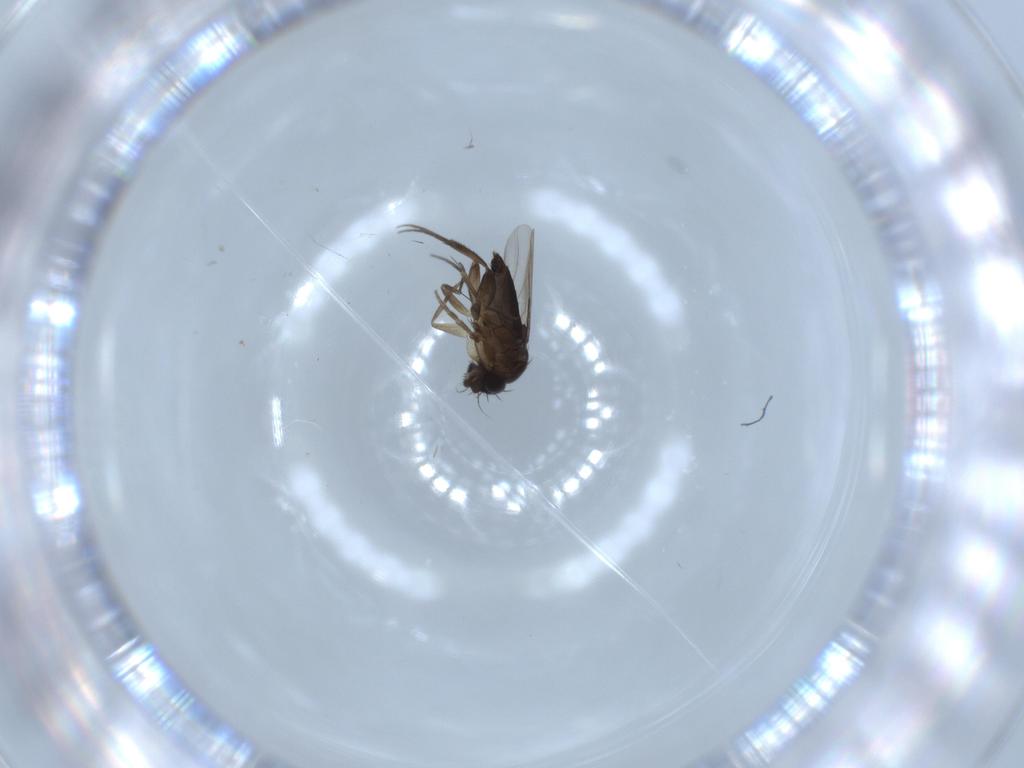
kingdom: Animalia
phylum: Arthropoda
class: Insecta
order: Diptera
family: Phoridae
